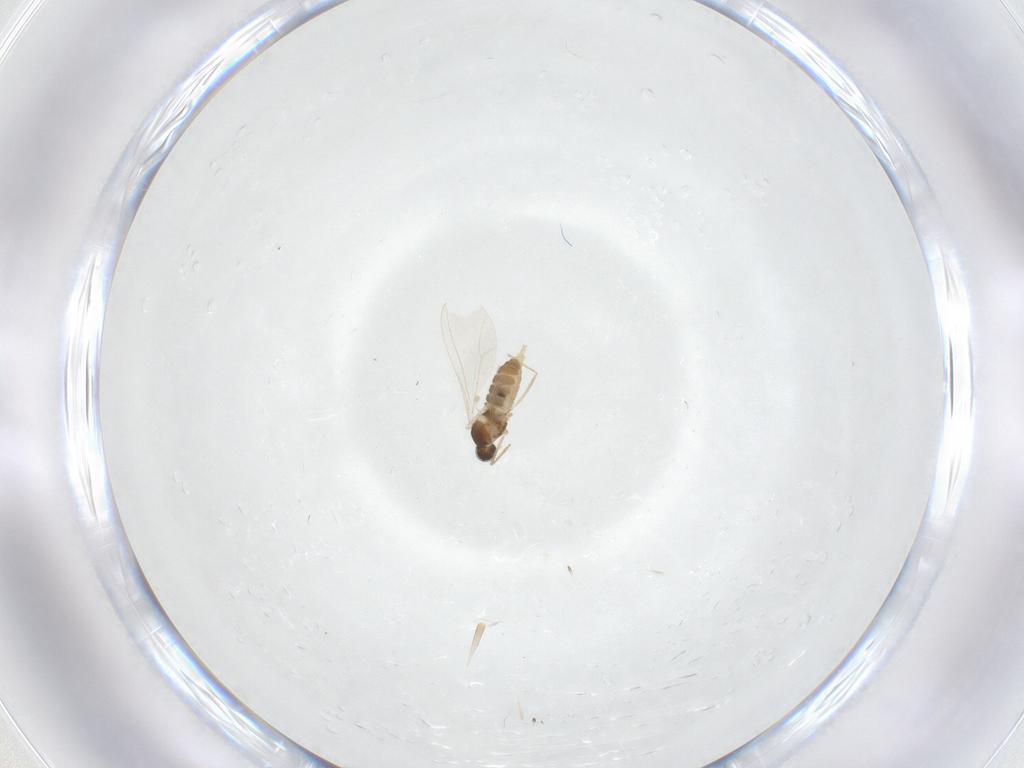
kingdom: Animalia
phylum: Arthropoda
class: Insecta
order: Diptera
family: Cecidomyiidae
